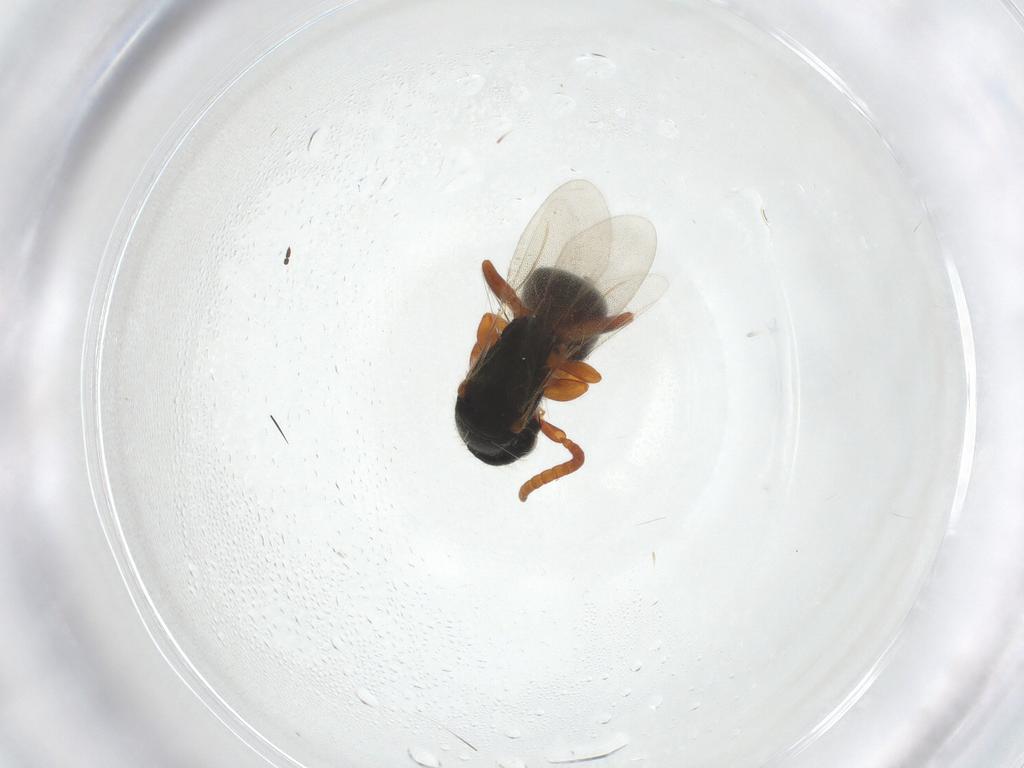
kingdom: Animalia
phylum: Arthropoda
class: Insecta
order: Hymenoptera
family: Bethylidae
